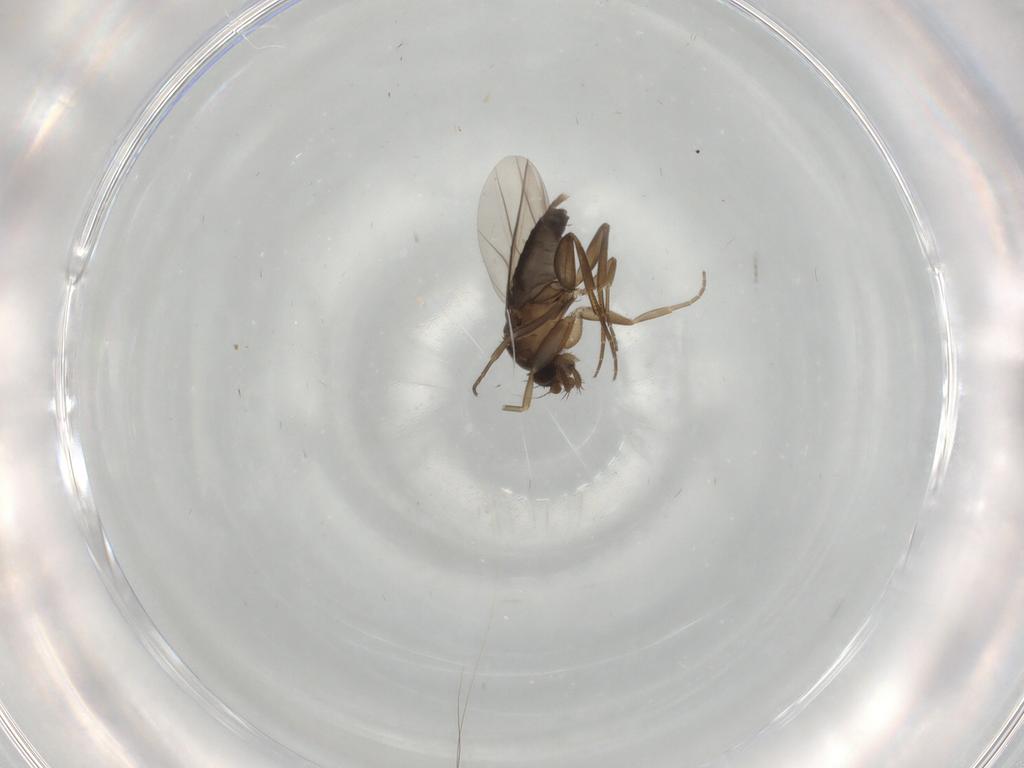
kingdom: Animalia
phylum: Arthropoda
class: Insecta
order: Diptera
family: Phoridae
